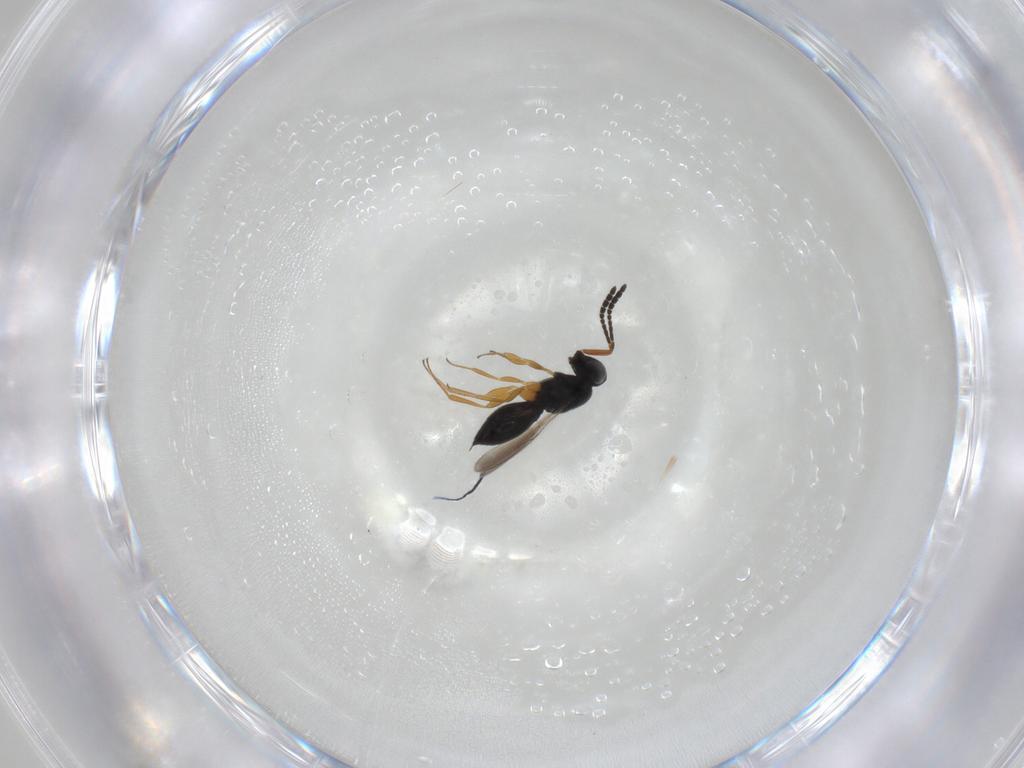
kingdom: Animalia
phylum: Arthropoda
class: Insecta
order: Hymenoptera
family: Scelionidae
